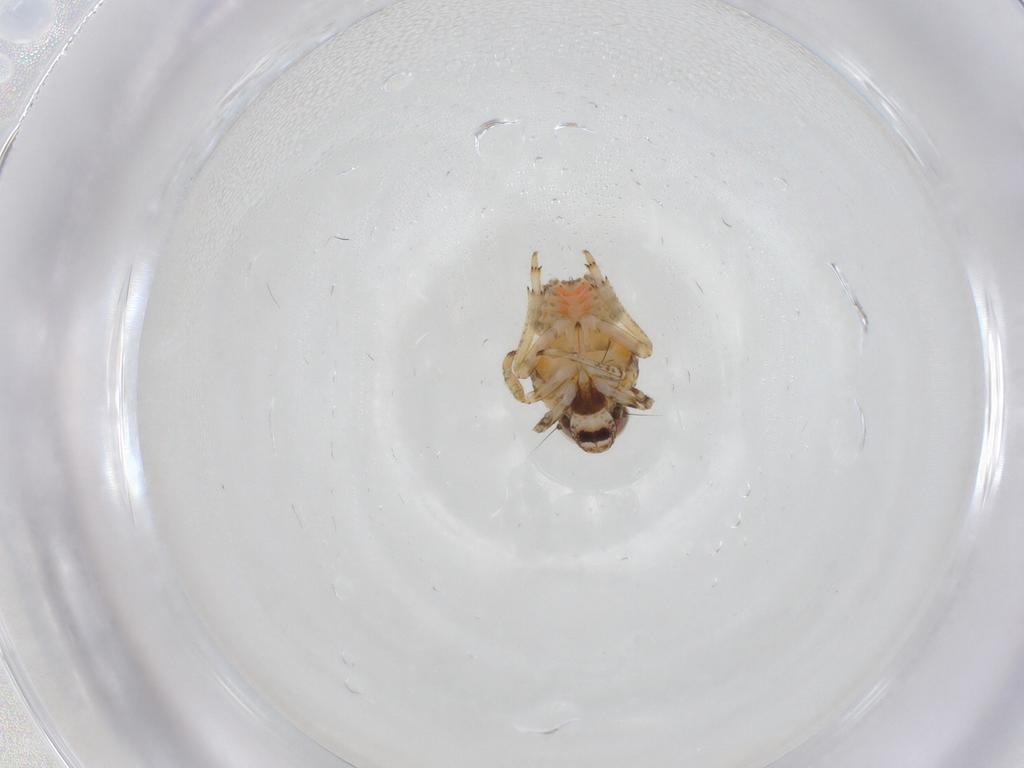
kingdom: Animalia
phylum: Arthropoda
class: Insecta
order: Hemiptera
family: Issidae
